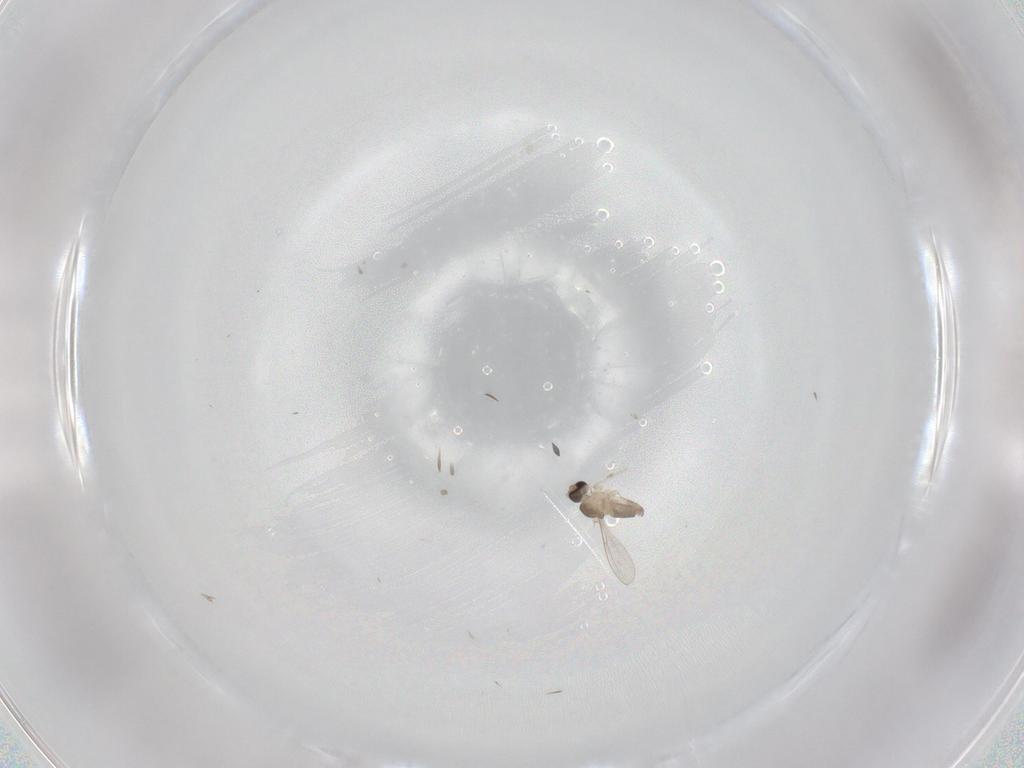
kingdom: Animalia
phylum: Arthropoda
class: Insecta
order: Diptera
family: Cecidomyiidae
